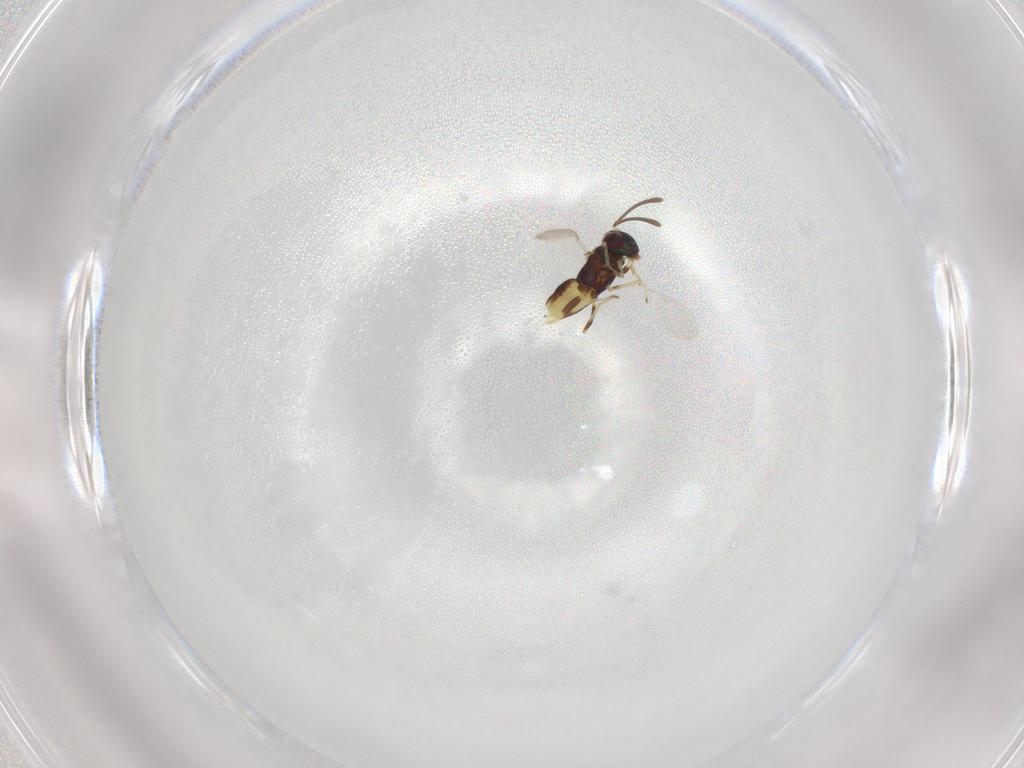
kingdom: Animalia
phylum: Arthropoda
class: Insecta
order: Hymenoptera
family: Encyrtidae
